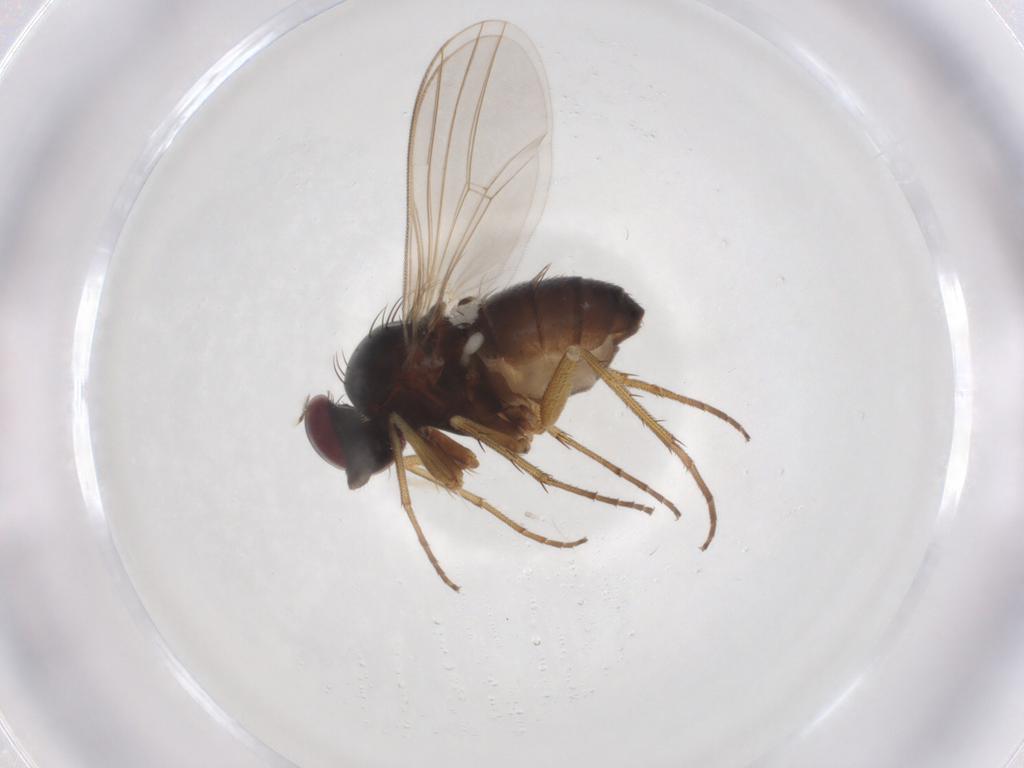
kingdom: Animalia
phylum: Arthropoda
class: Insecta
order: Diptera
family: Dolichopodidae
